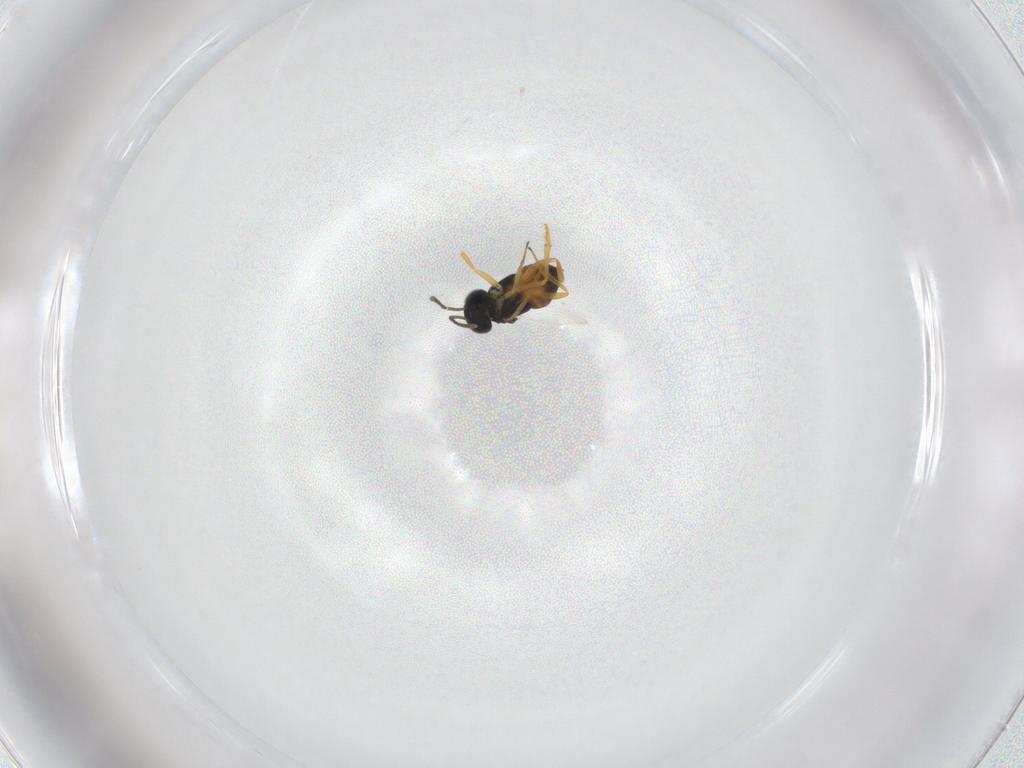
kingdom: Animalia
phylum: Arthropoda
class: Insecta
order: Hymenoptera
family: Encyrtidae
